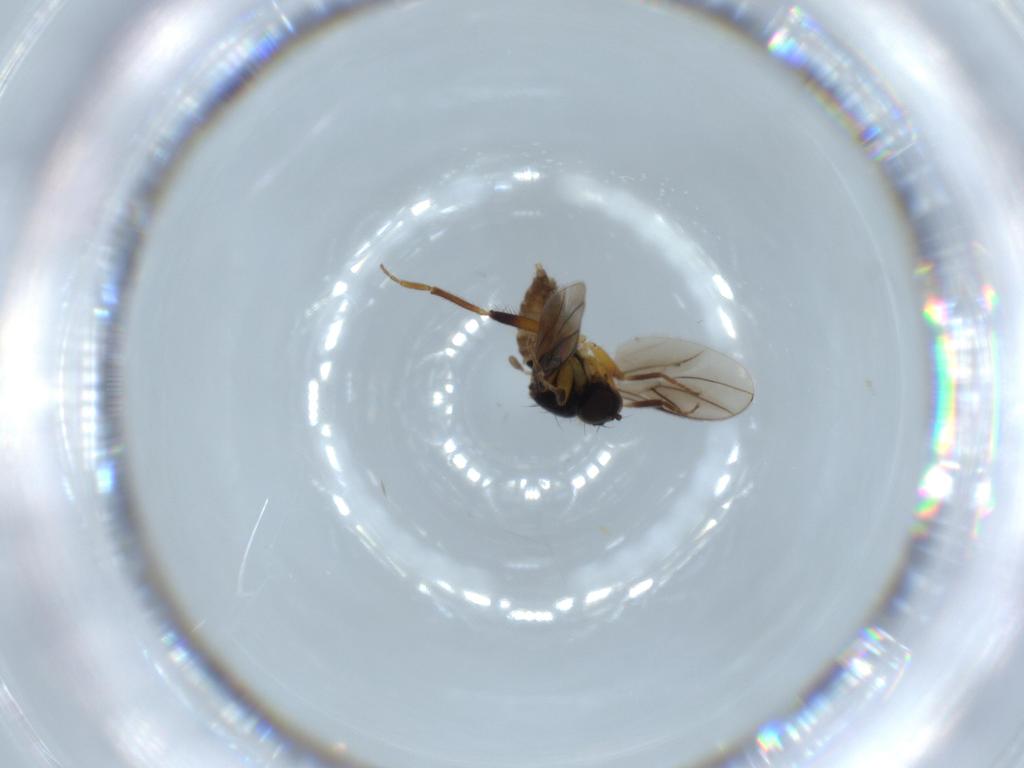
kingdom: Animalia
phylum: Arthropoda
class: Insecta
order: Diptera
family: Hybotidae
